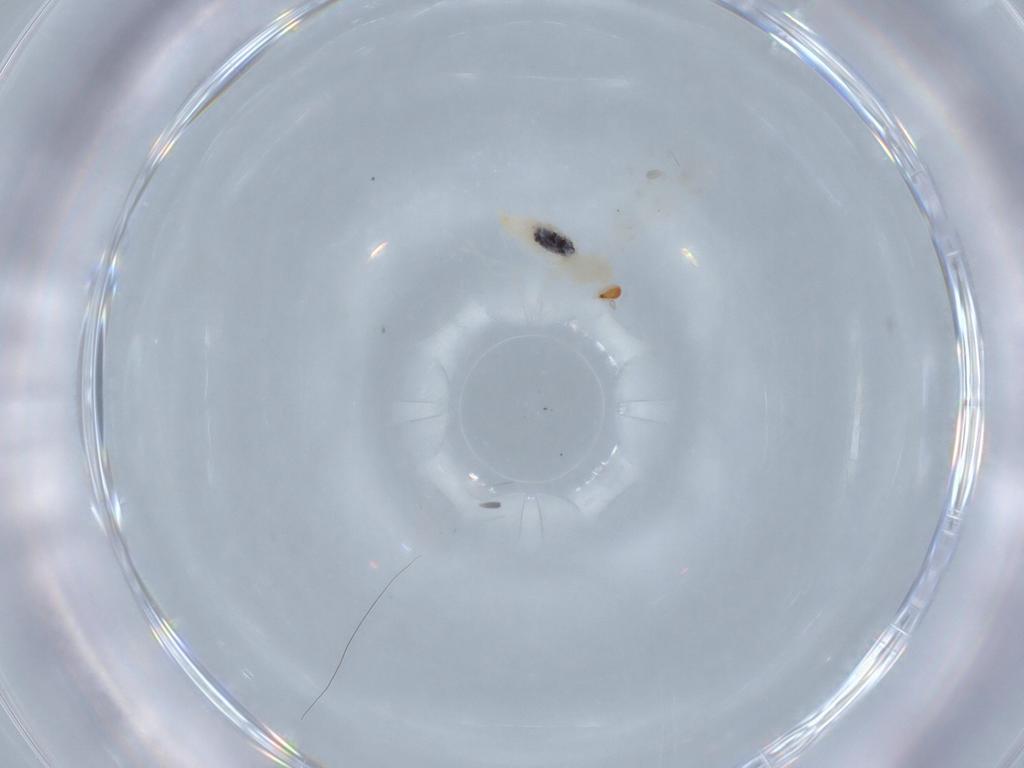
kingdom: Animalia
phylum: Arthropoda
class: Insecta
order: Diptera
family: Cecidomyiidae
